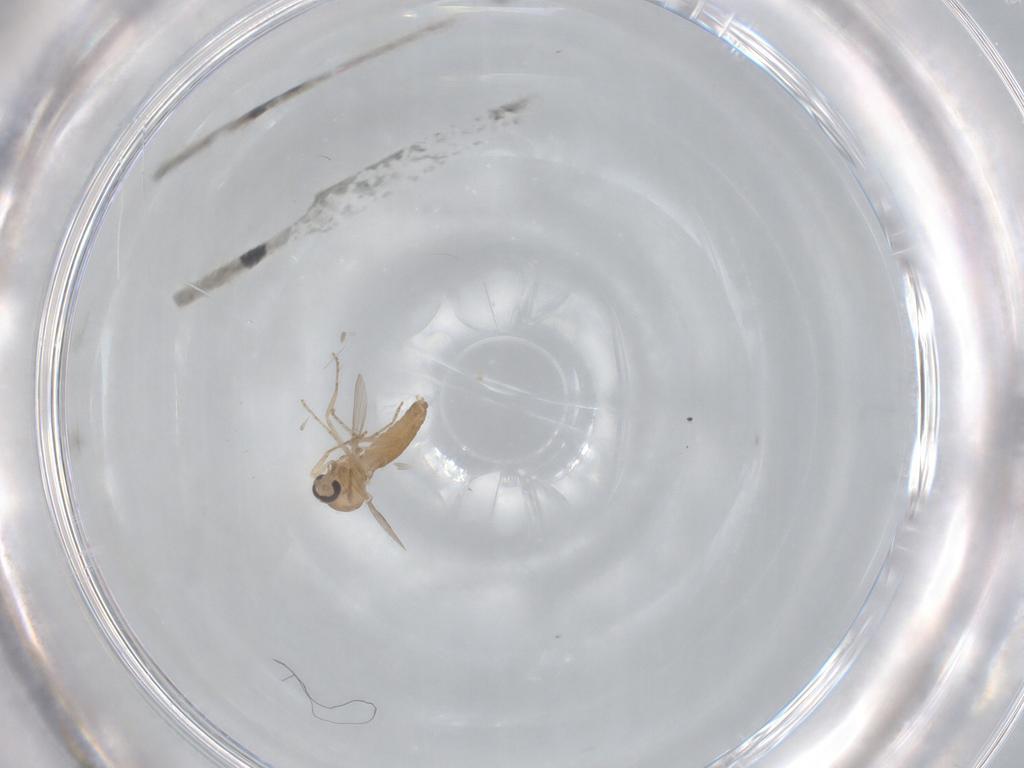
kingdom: Animalia
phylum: Arthropoda
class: Insecta
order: Diptera
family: Ceratopogonidae
